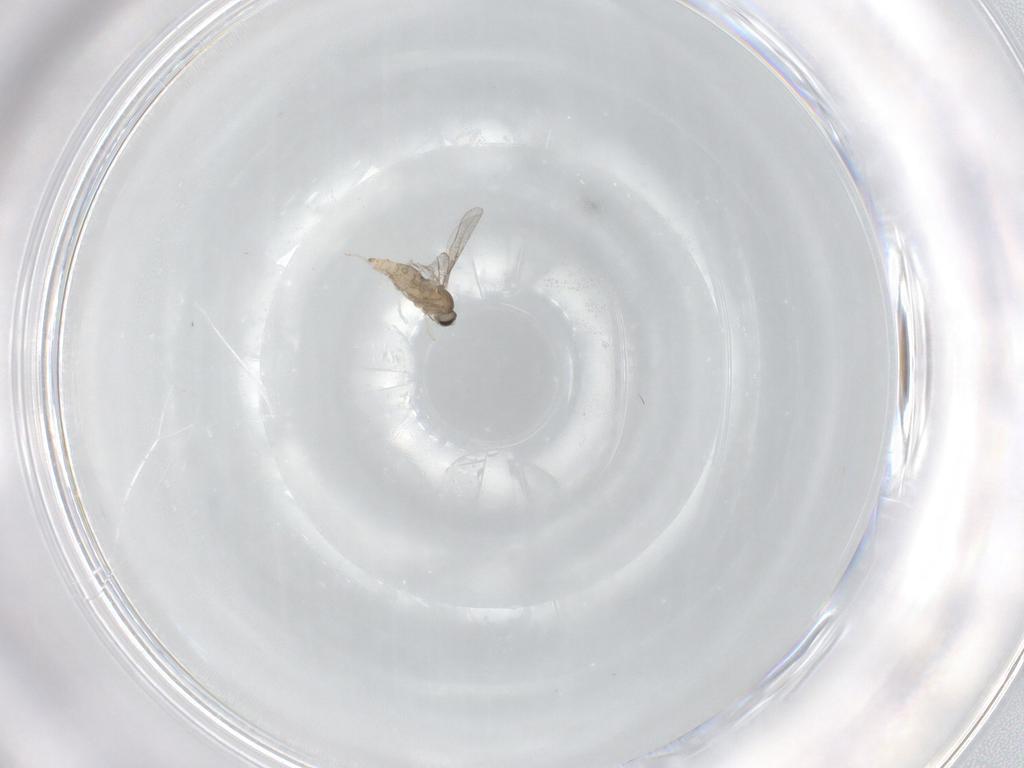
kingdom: Animalia
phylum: Arthropoda
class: Insecta
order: Diptera
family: Cecidomyiidae
